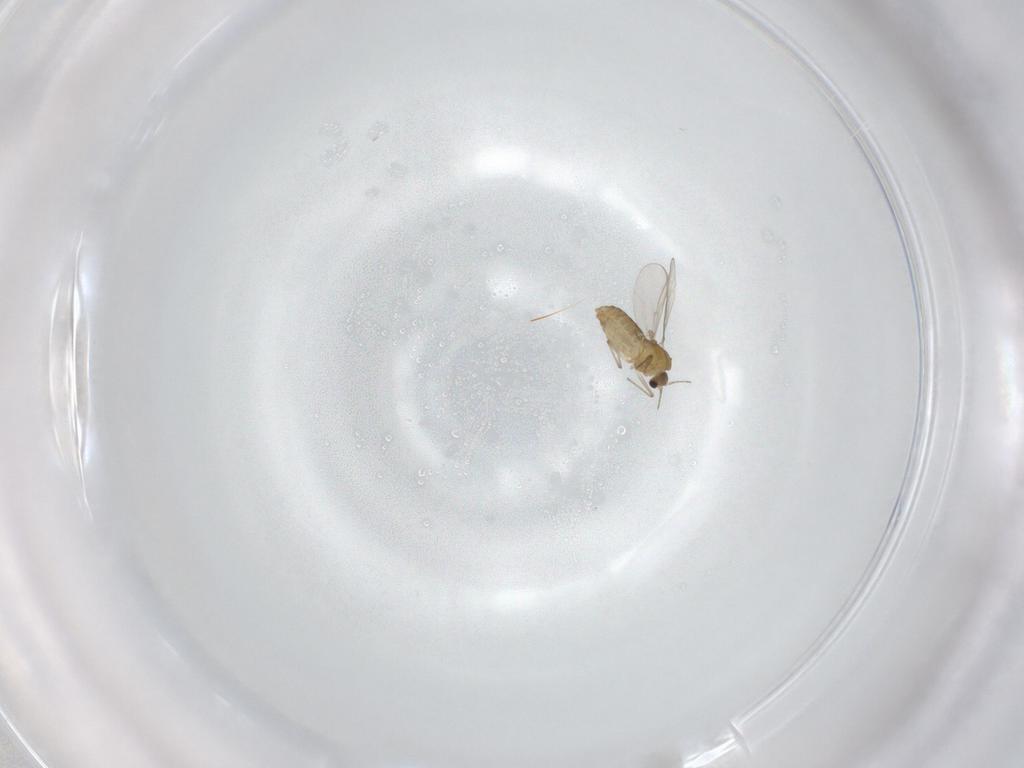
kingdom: Animalia
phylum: Arthropoda
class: Insecta
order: Diptera
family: Chironomidae
